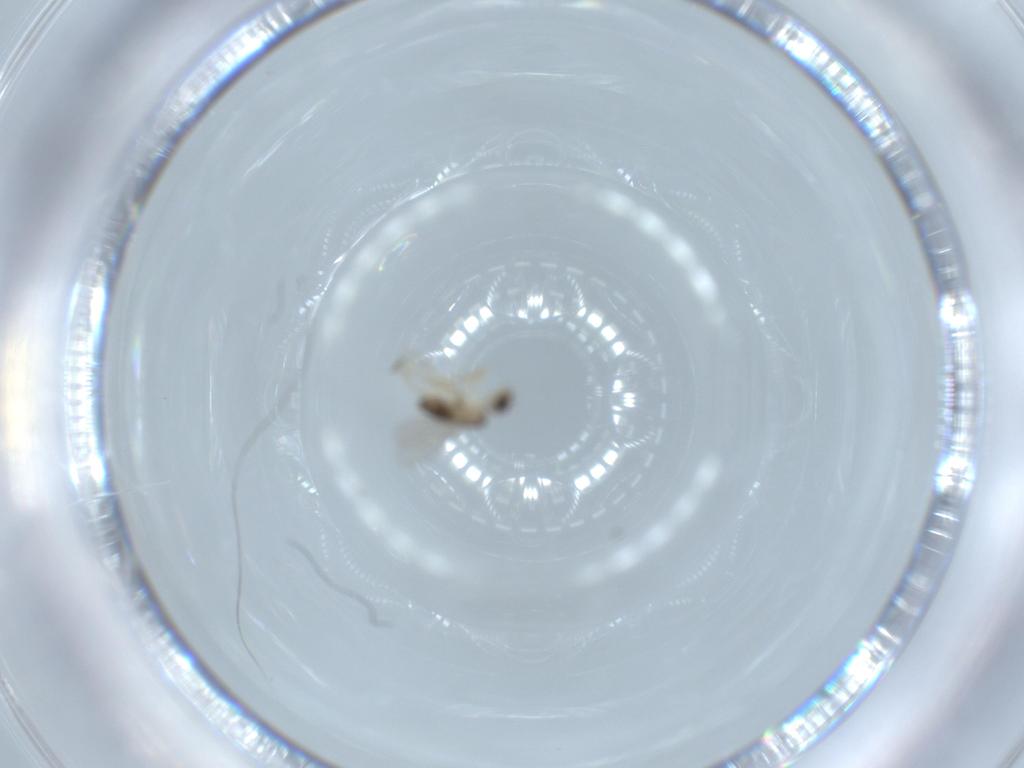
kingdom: Animalia
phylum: Arthropoda
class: Insecta
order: Diptera
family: Phoridae
